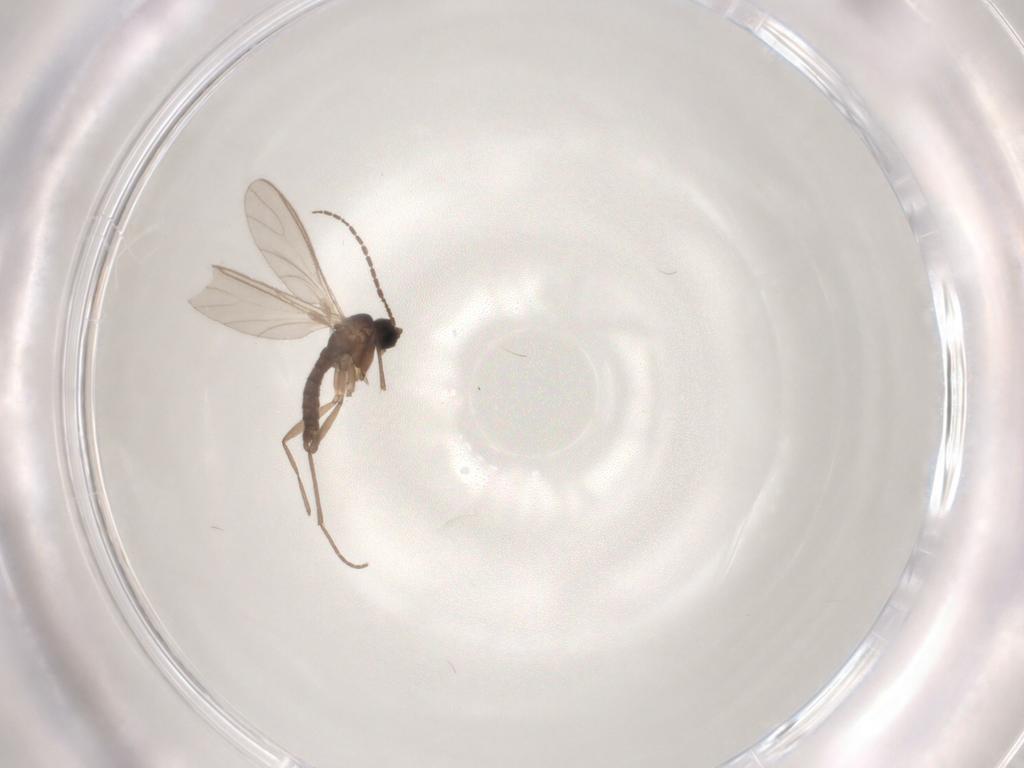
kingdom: Animalia
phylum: Arthropoda
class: Insecta
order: Diptera
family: Sciaridae
